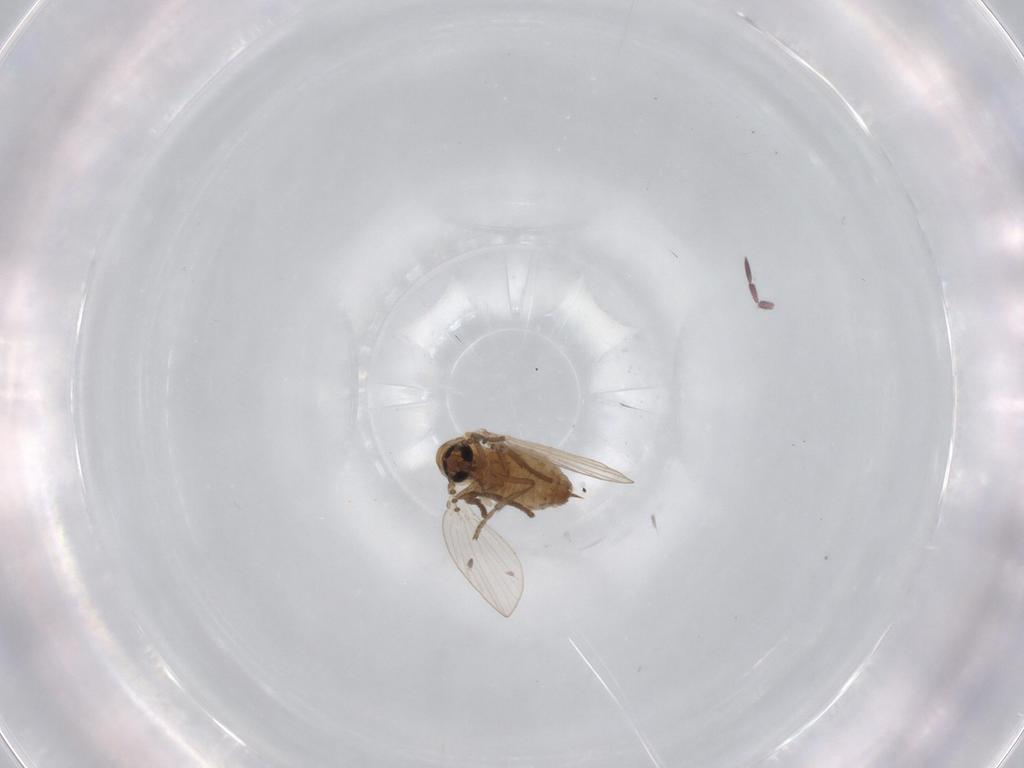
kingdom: Animalia
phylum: Arthropoda
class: Insecta
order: Diptera
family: Psychodidae
